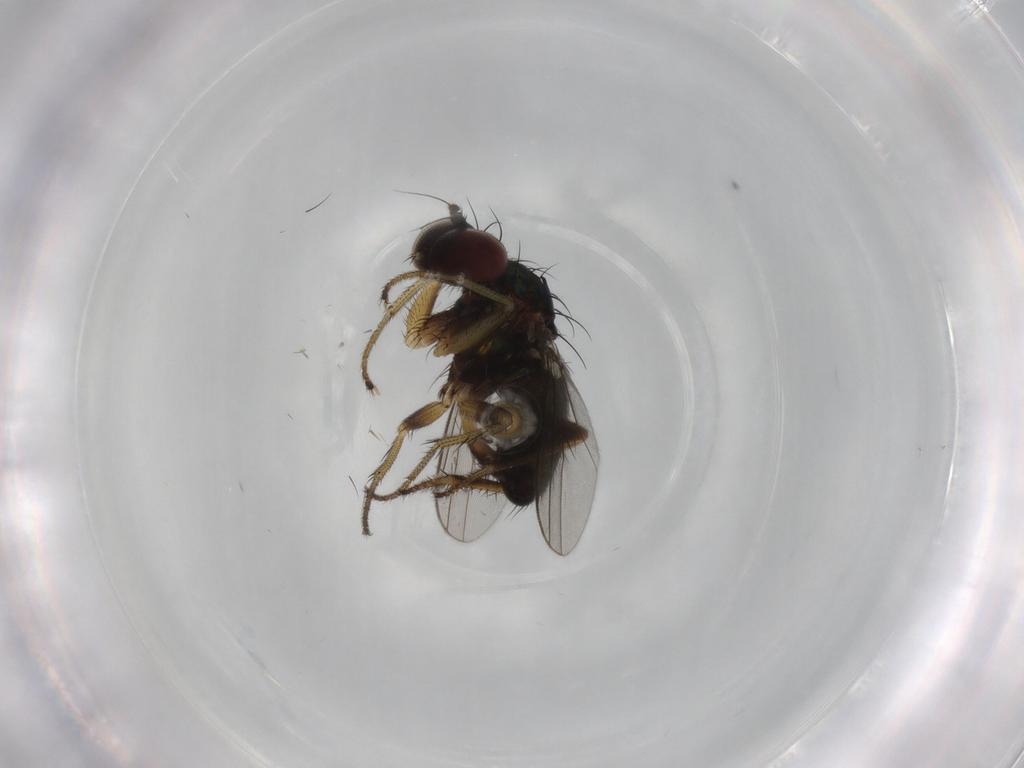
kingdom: Animalia
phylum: Arthropoda
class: Insecta
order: Diptera
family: Dolichopodidae
